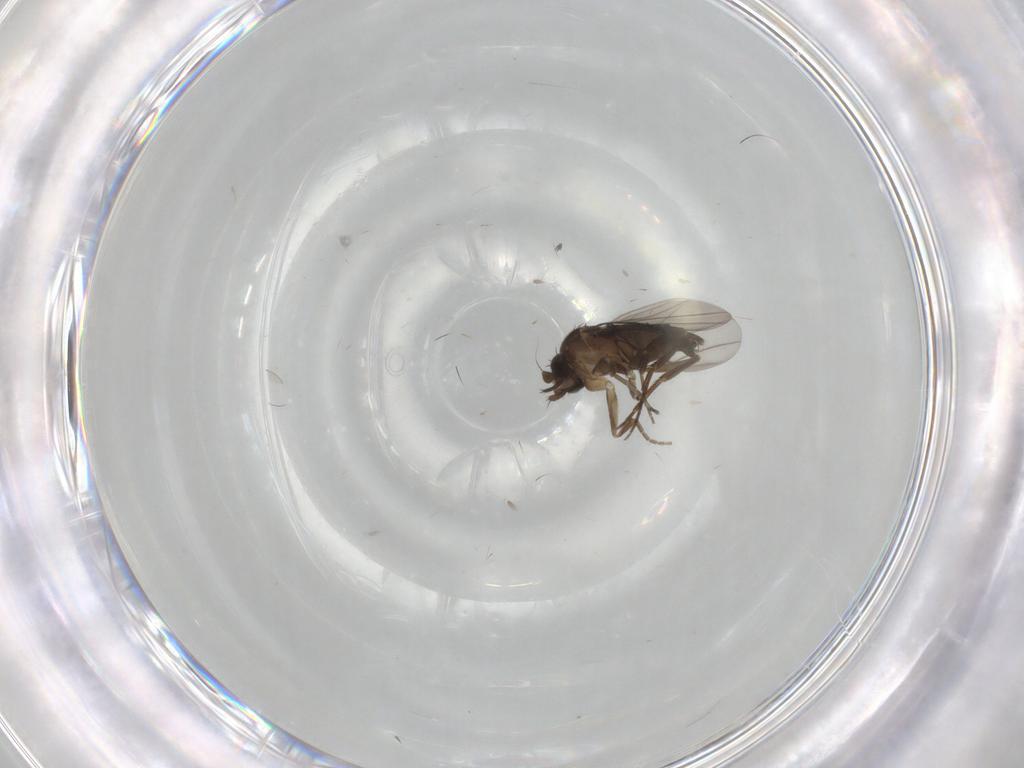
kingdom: Animalia
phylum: Arthropoda
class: Insecta
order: Diptera
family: Phoridae
